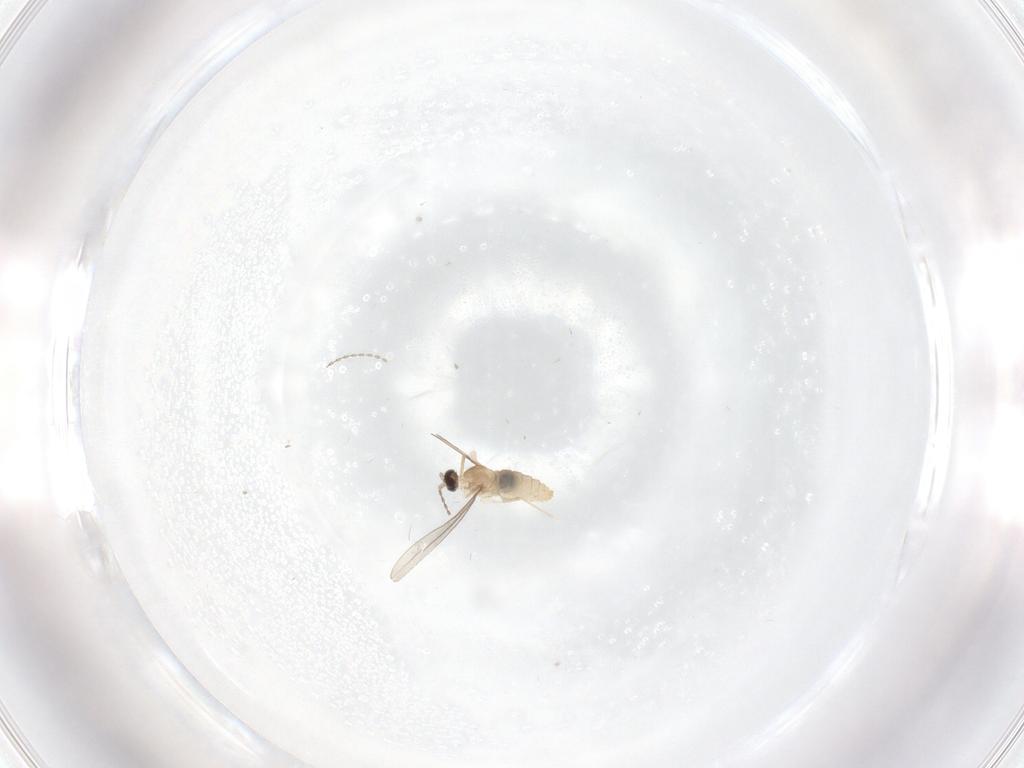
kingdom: Animalia
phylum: Arthropoda
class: Insecta
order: Diptera
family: Cecidomyiidae
